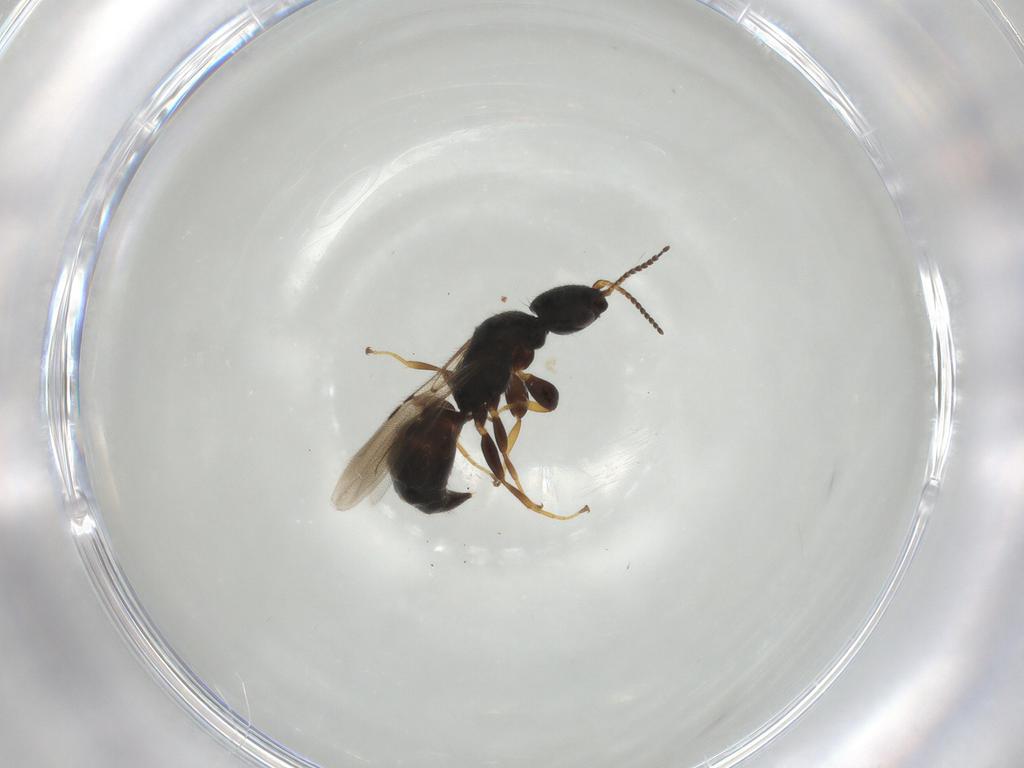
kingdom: Animalia
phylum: Arthropoda
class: Insecta
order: Hymenoptera
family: Bethylidae
